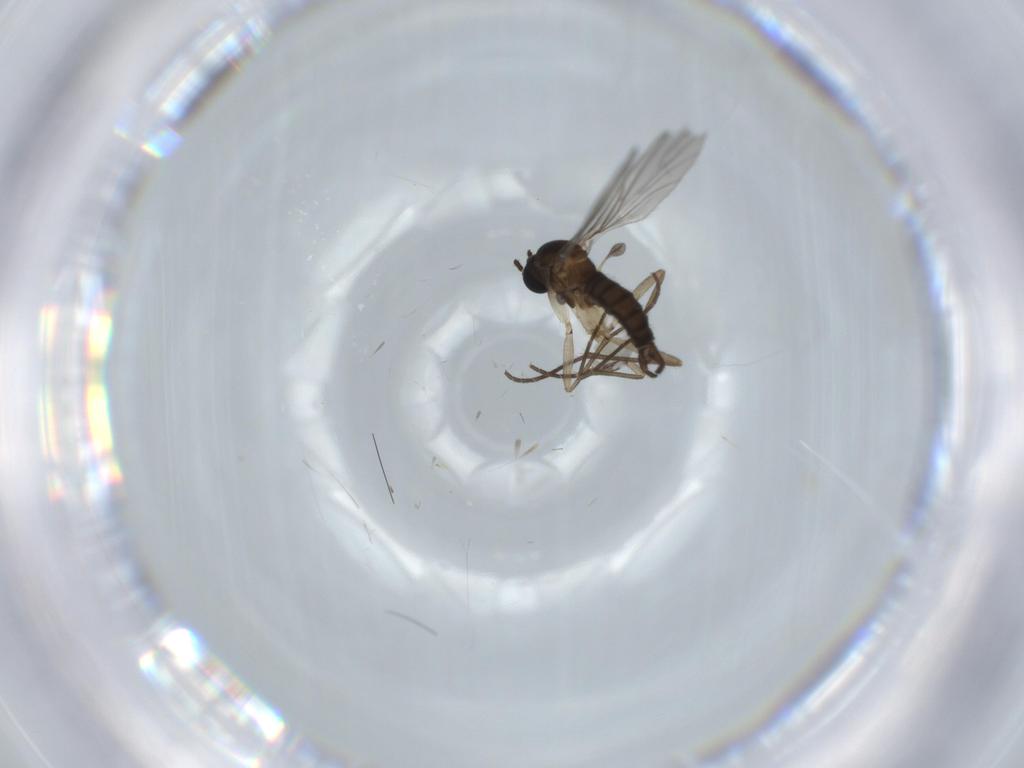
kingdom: Animalia
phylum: Arthropoda
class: Insecta
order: Diptera
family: Sciaridae
